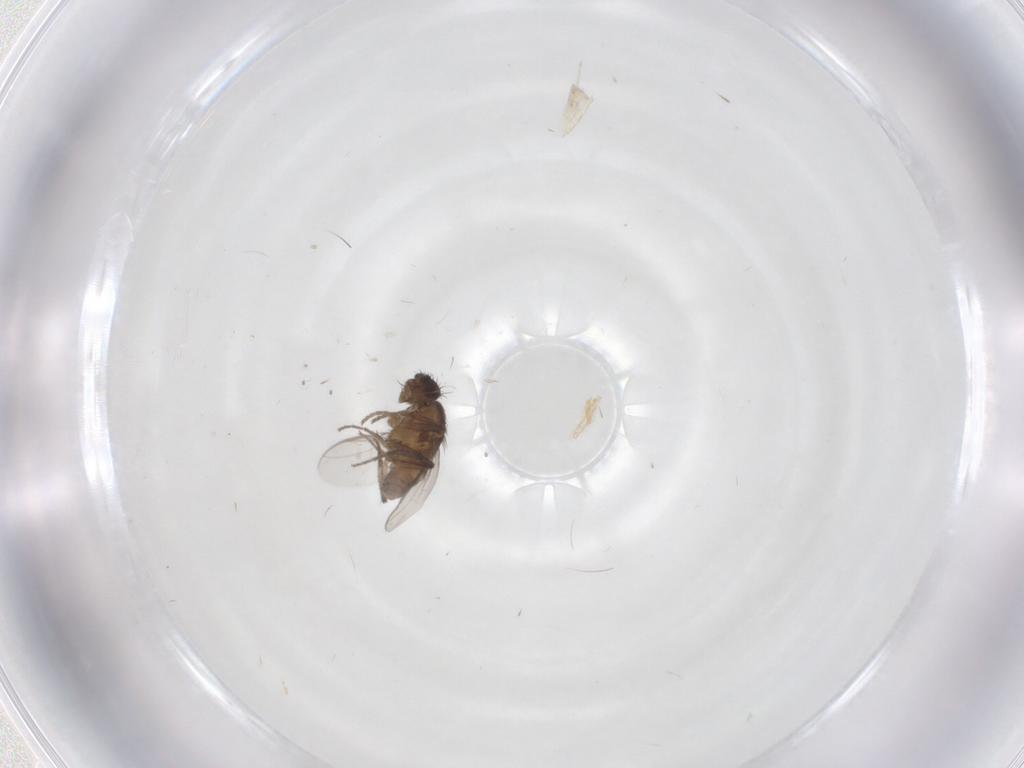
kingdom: Animalia
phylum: Arthropoda
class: Insecta
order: Diptera
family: Sphaeroceridae
